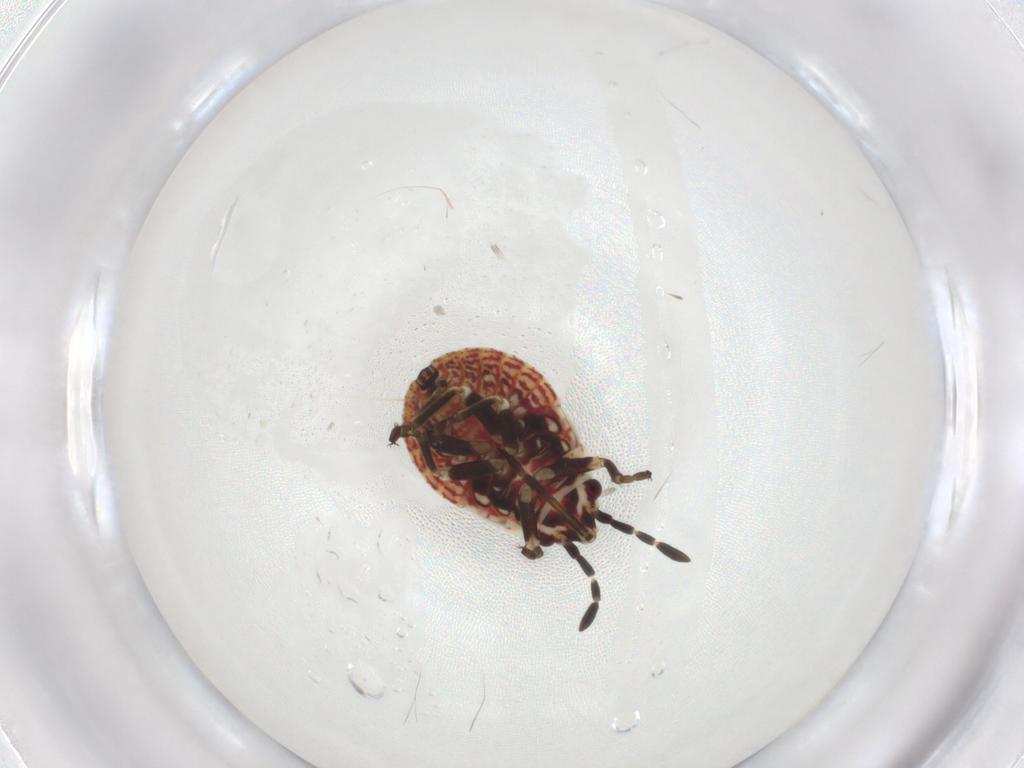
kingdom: Animalia
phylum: Arthropoda
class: Insecta
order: Hemiptera
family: Lygaeidae
